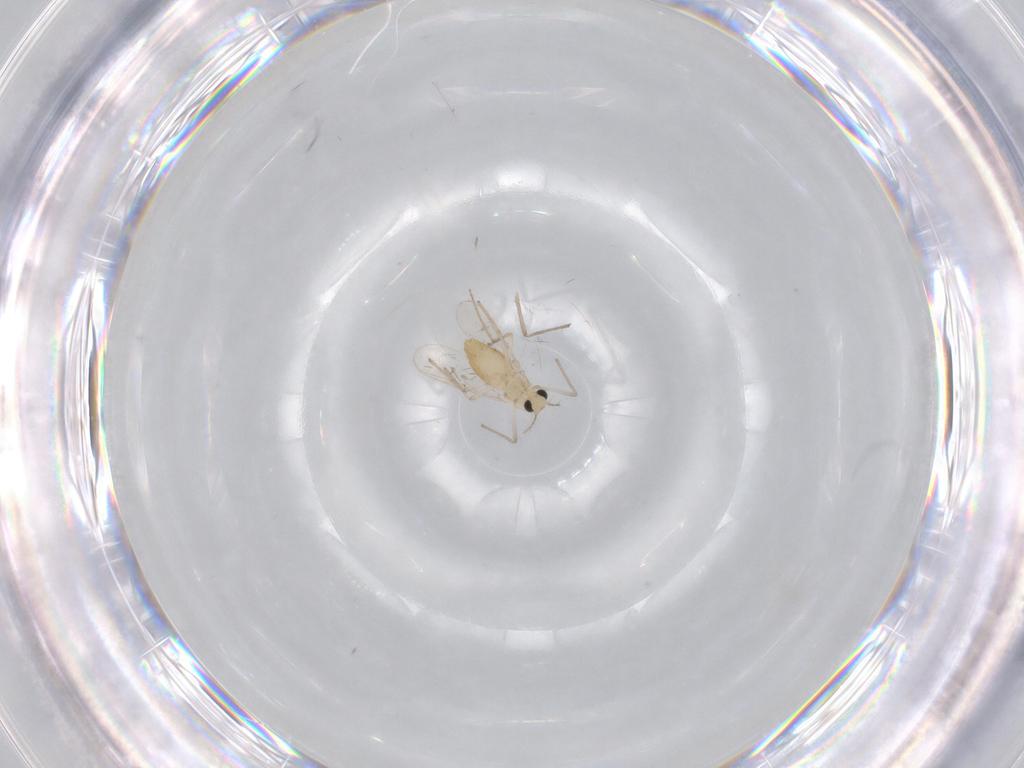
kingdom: Animalia
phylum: Arthropoda
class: Insecta
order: Diptera
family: Chironomidae
